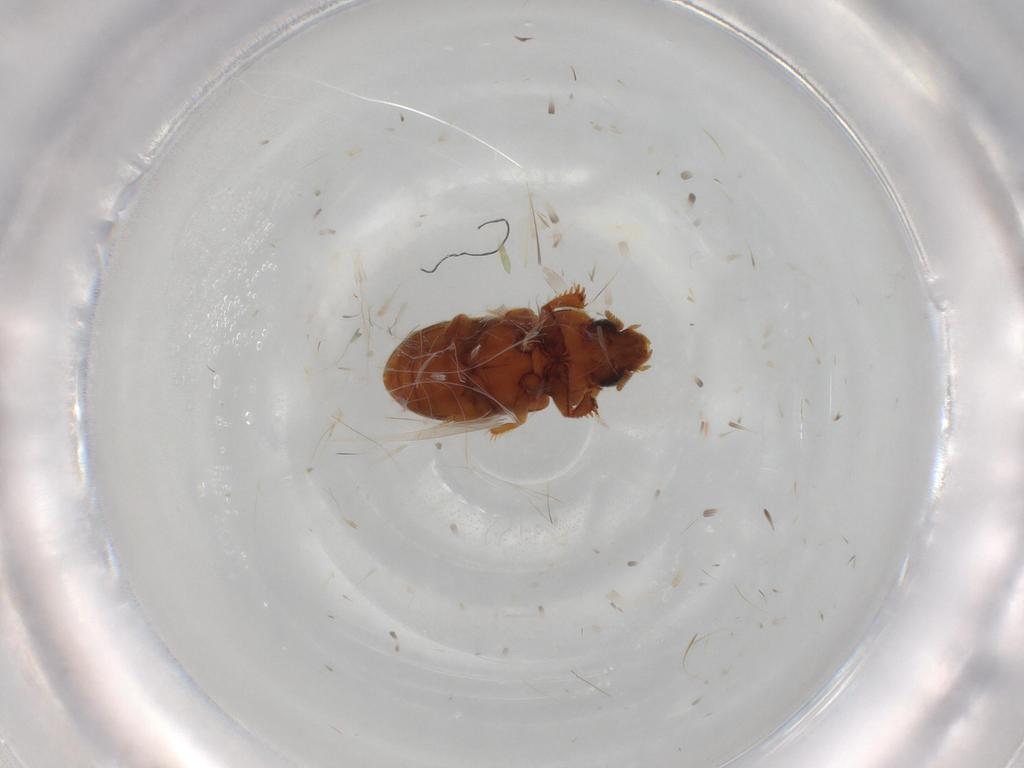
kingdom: Animalia
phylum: Arthropoda
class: Insecta
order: Coleoptera
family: Heteroceridae
